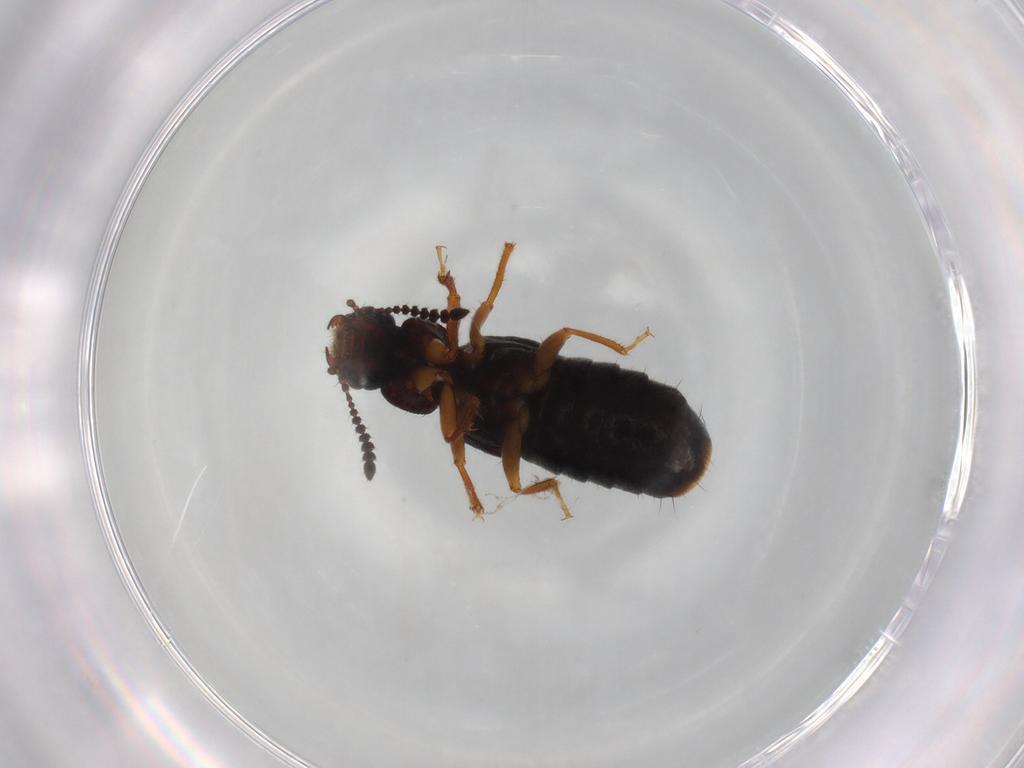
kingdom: Animalia
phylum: Arthropoda
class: Insecta
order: Coleoptera
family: Staphylinidae
